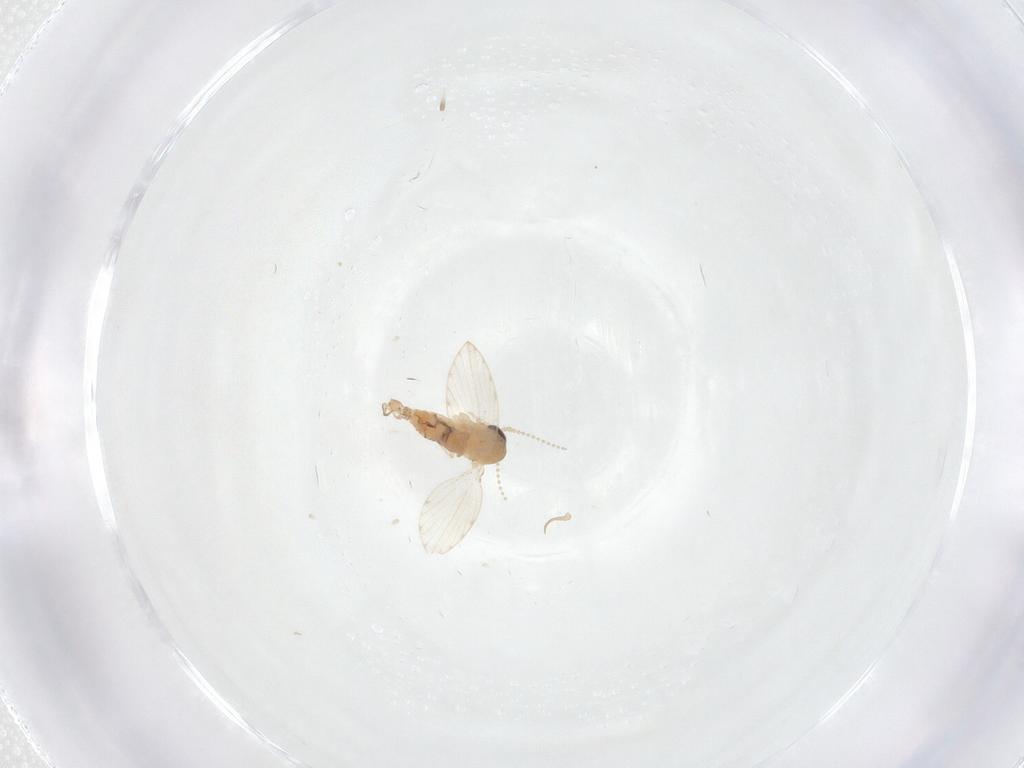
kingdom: Animalia
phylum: Arthropoda
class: Insecta
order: Diptera
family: Psychodidae
